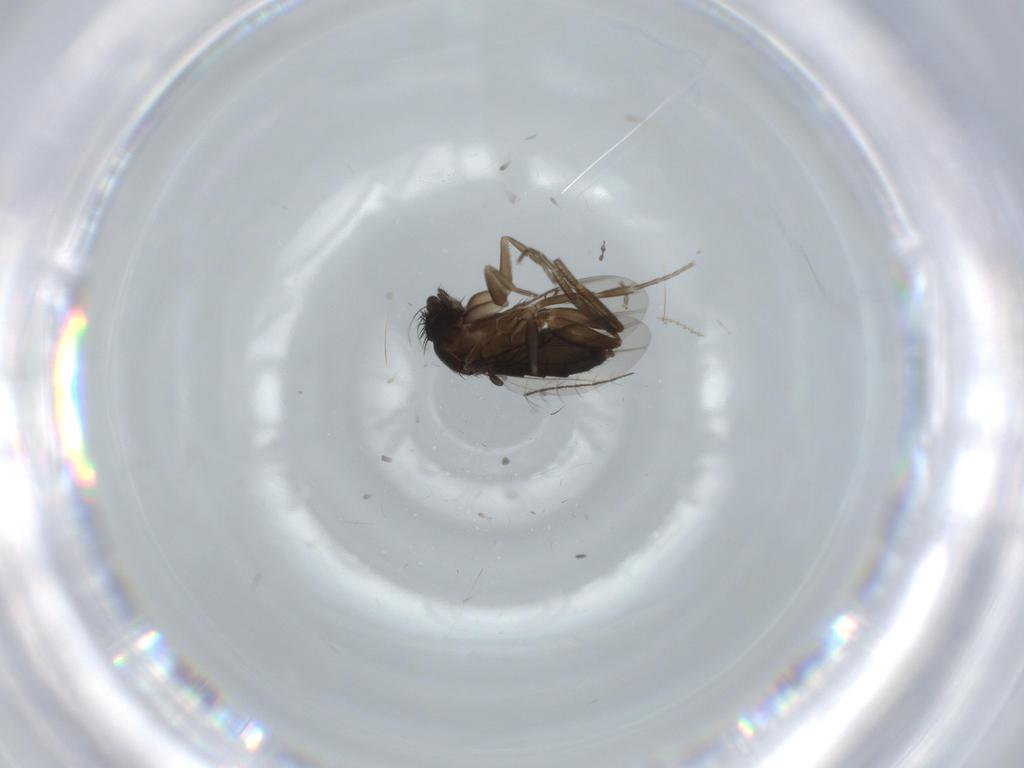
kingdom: Animalia
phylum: Arthropoda
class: Insecta
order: Diptera
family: Phoridae
